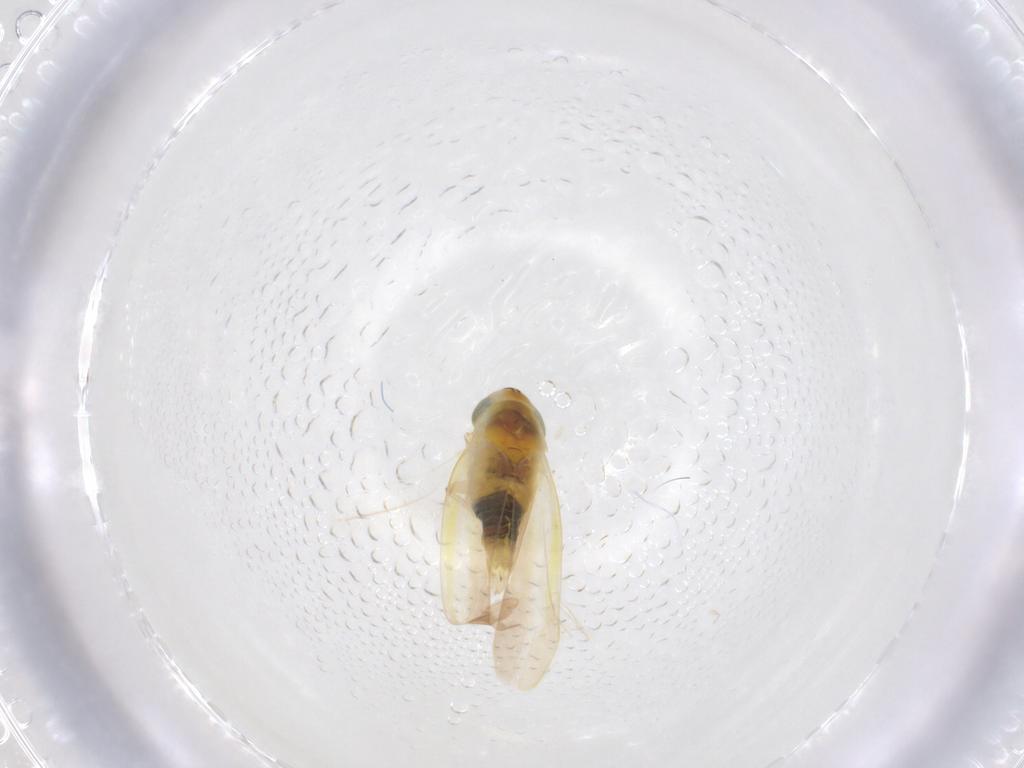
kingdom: Animalia
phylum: Arthropoda
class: Insecta
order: Hemiptera
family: Cicadellidae
